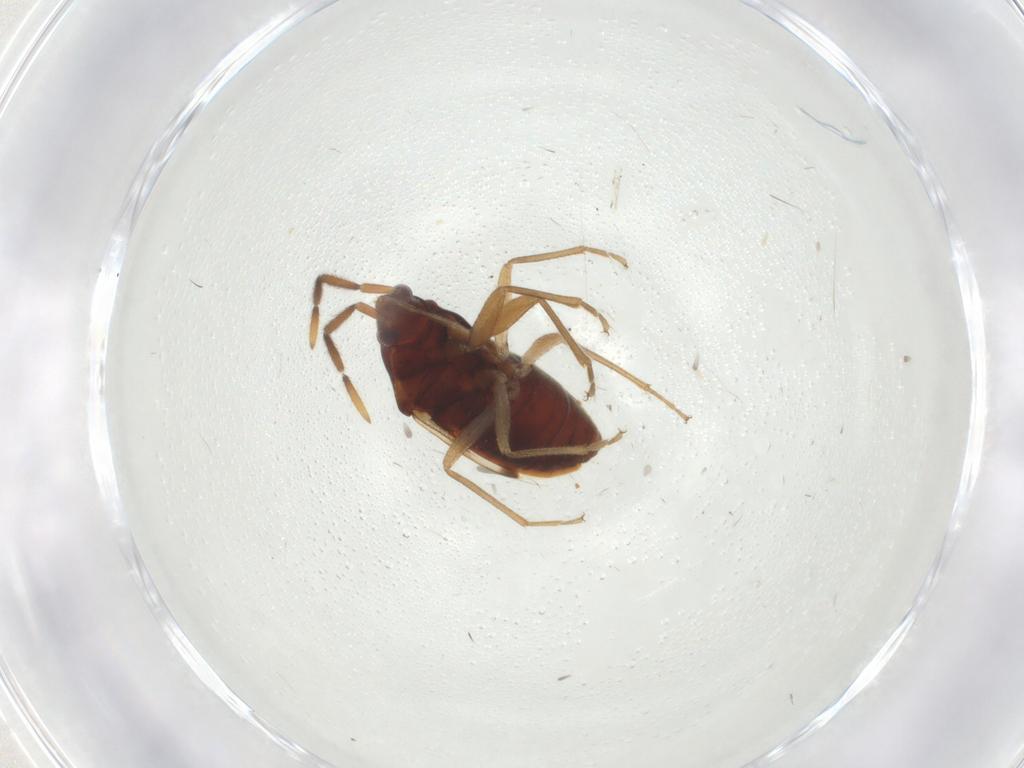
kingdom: Animalia
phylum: Arthropoda
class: Insecta
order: Hemiptera
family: Rhyparochromidae
